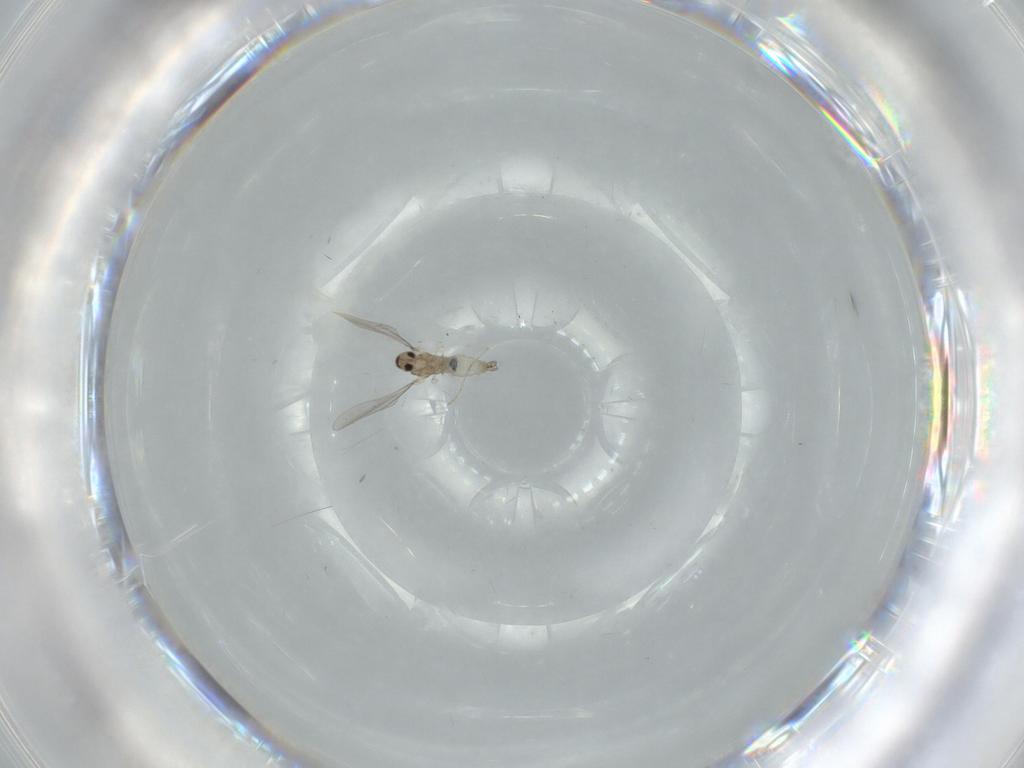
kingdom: Animalia
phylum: Arthropoda
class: Insecta
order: Diptera
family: Cecidomyiidae
